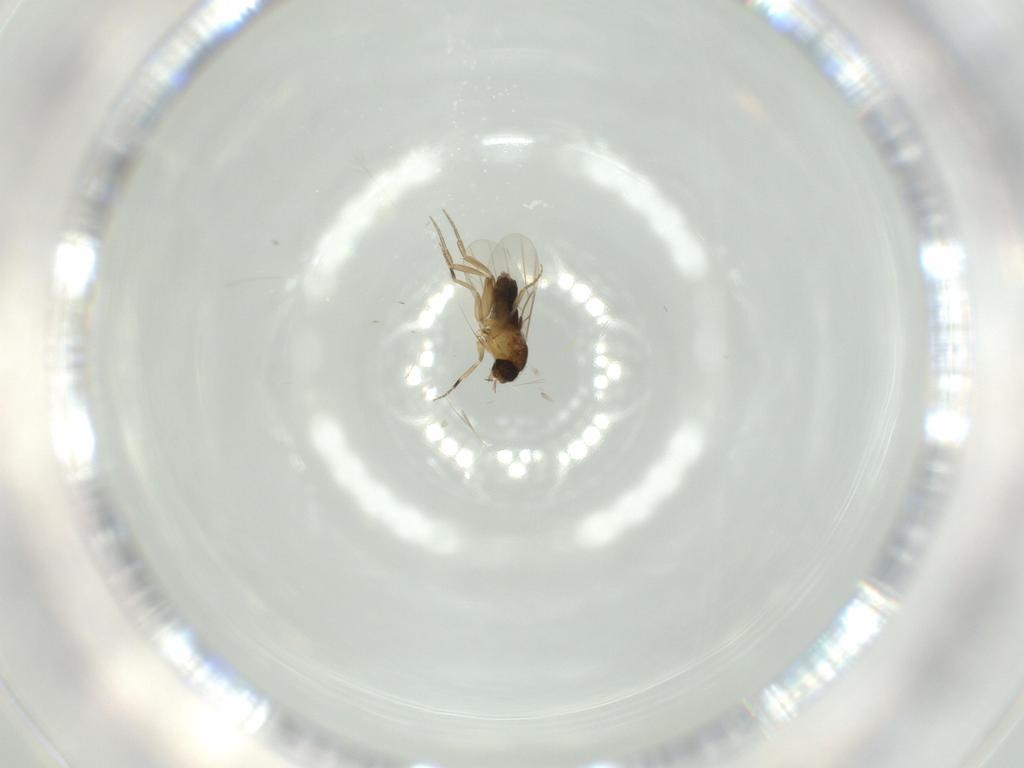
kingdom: Animalia
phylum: Arthropoda
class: Insecta
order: Diptera
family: Phoridae
